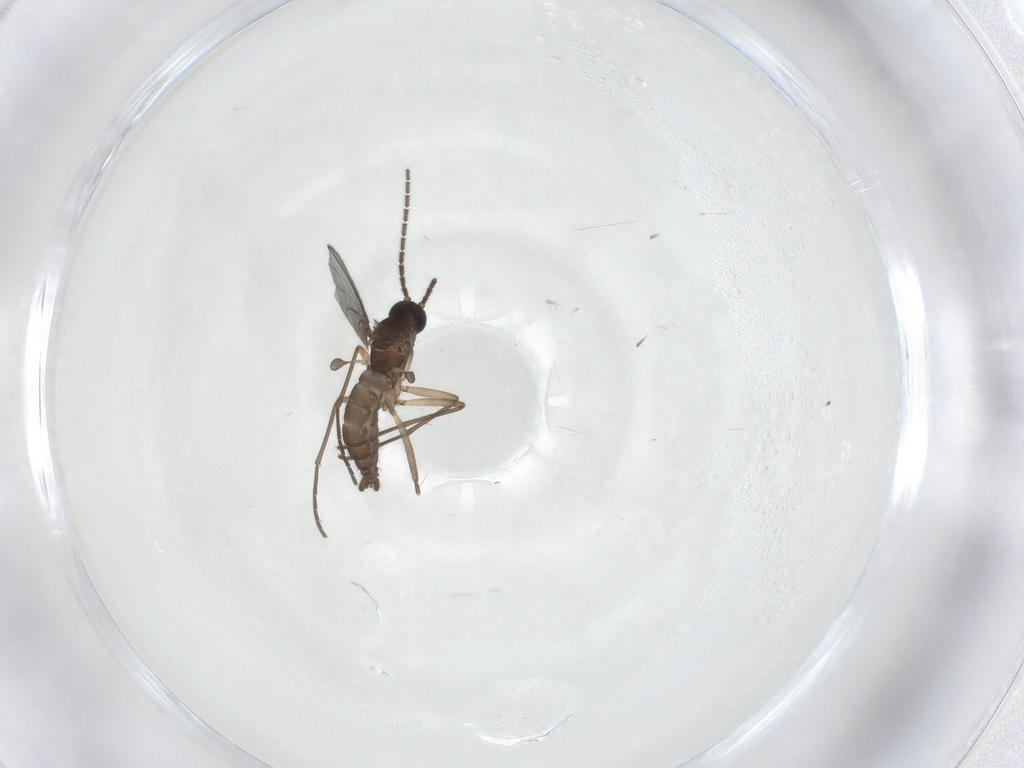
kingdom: Animalia
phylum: Arthropoda
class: Insecta
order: Diptera
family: Sciaridae
